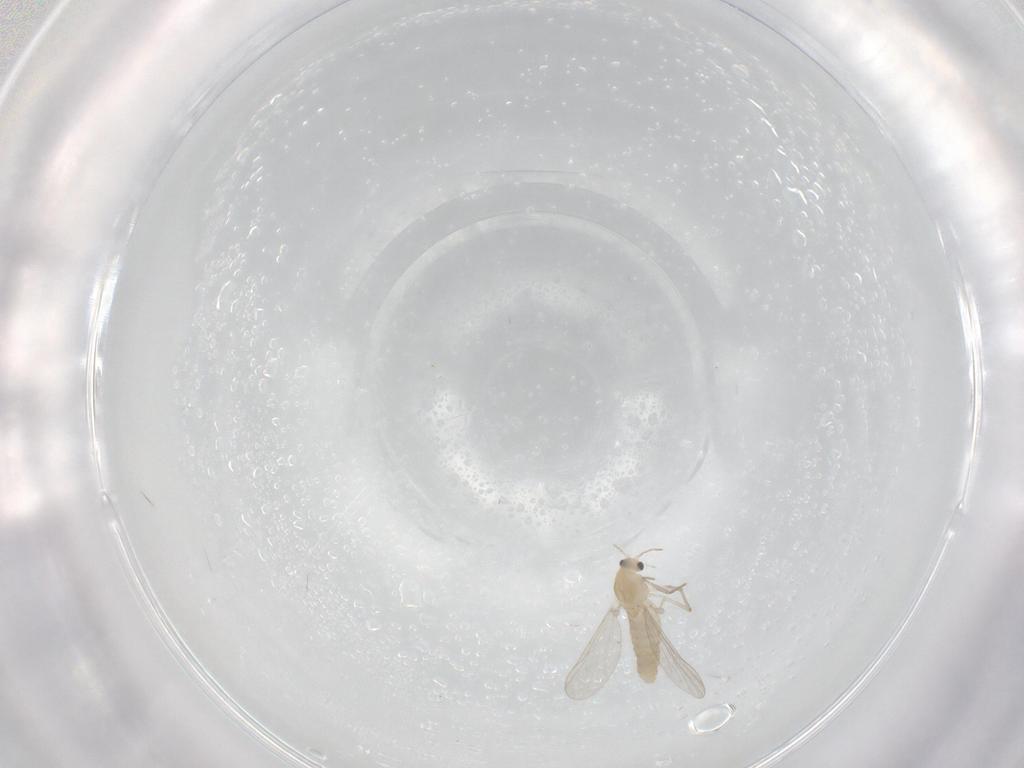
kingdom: Animalia
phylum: Arthropoda
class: Insecta
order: Diptera
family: Chironomidae
